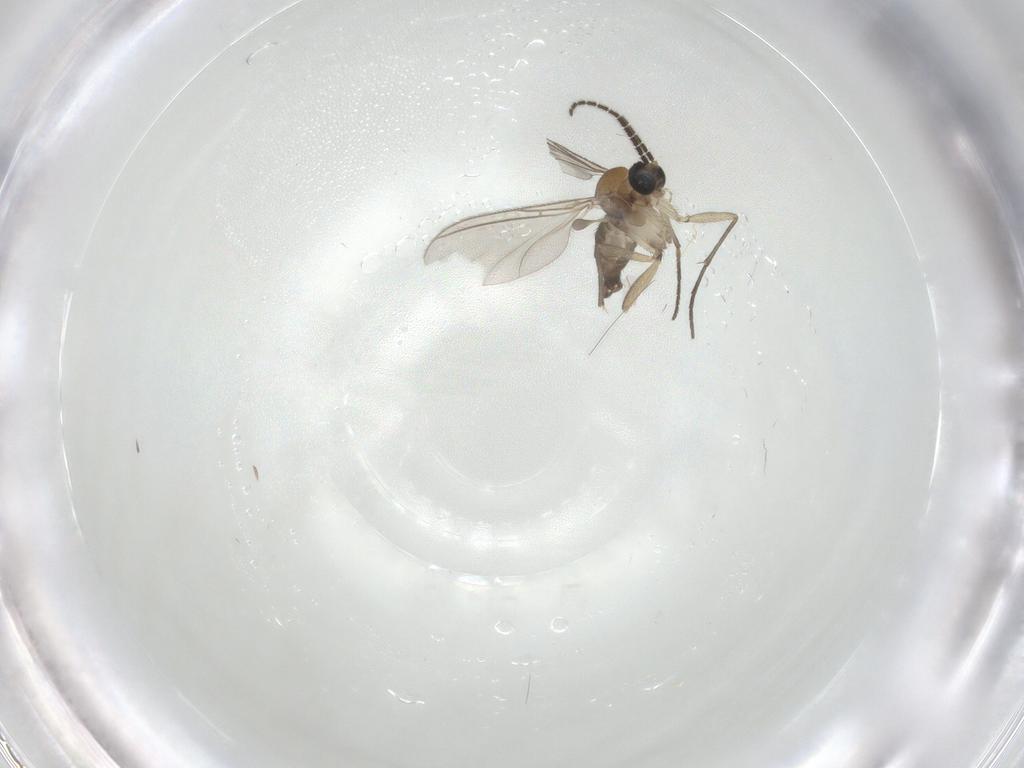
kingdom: Animalia
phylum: Arthropoda
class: Insecta
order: Diptera
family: Sciaridae
